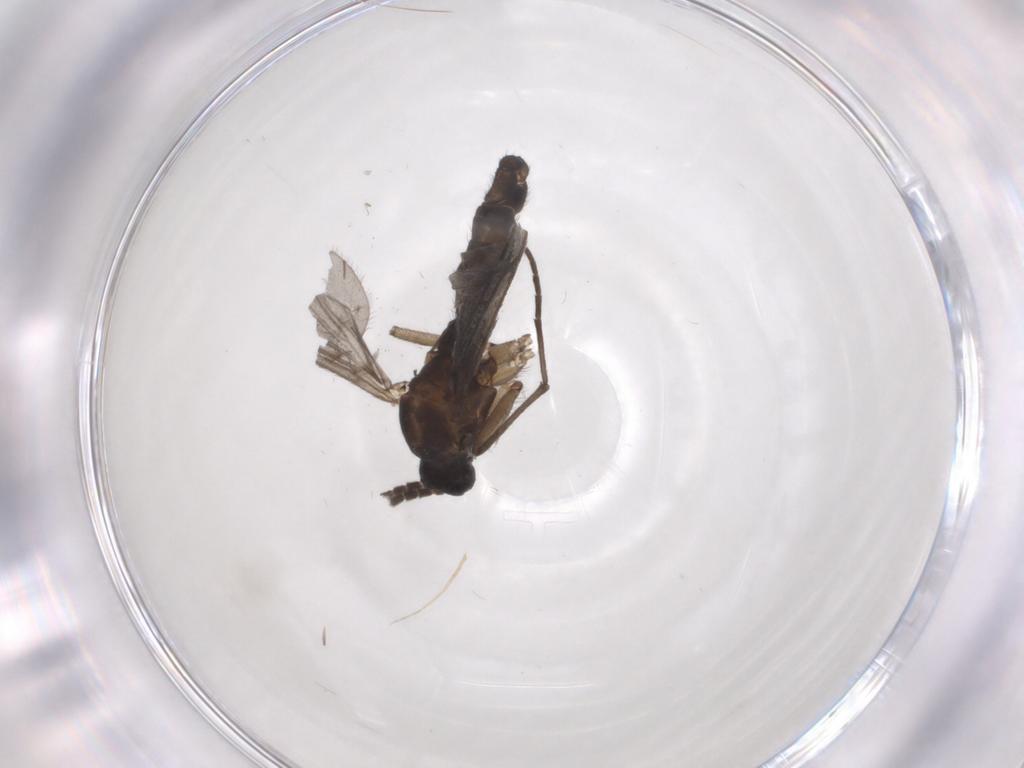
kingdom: Animalia
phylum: Arthropoda
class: Insecta
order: Diptera
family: Sciaridae
